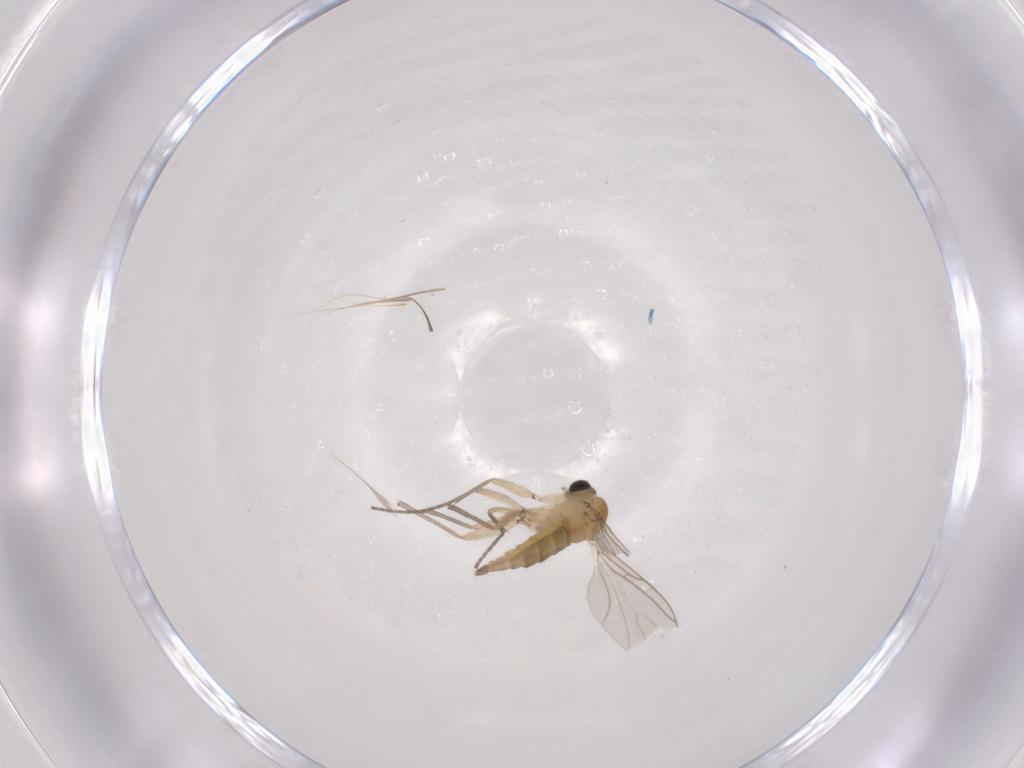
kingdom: Animalia
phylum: Arthropoda
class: Insecta
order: Diptera
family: Sciaridae
